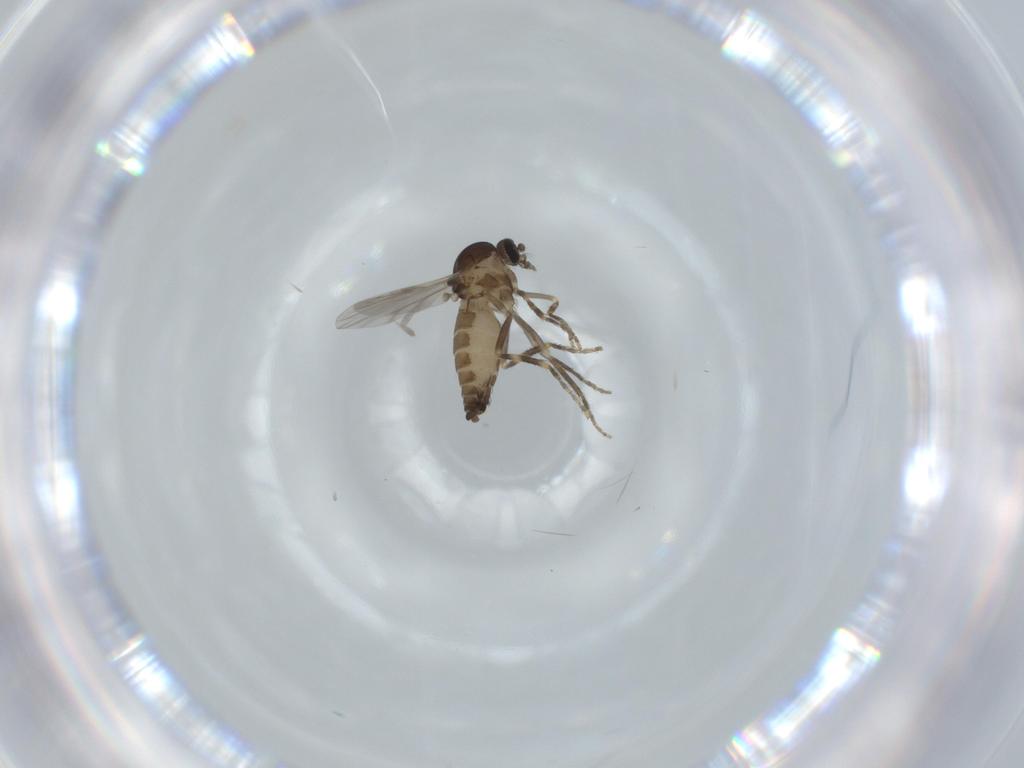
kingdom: Animalia
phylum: Arthropoda
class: Insecta
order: Diptera
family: Ceratopogonidae
